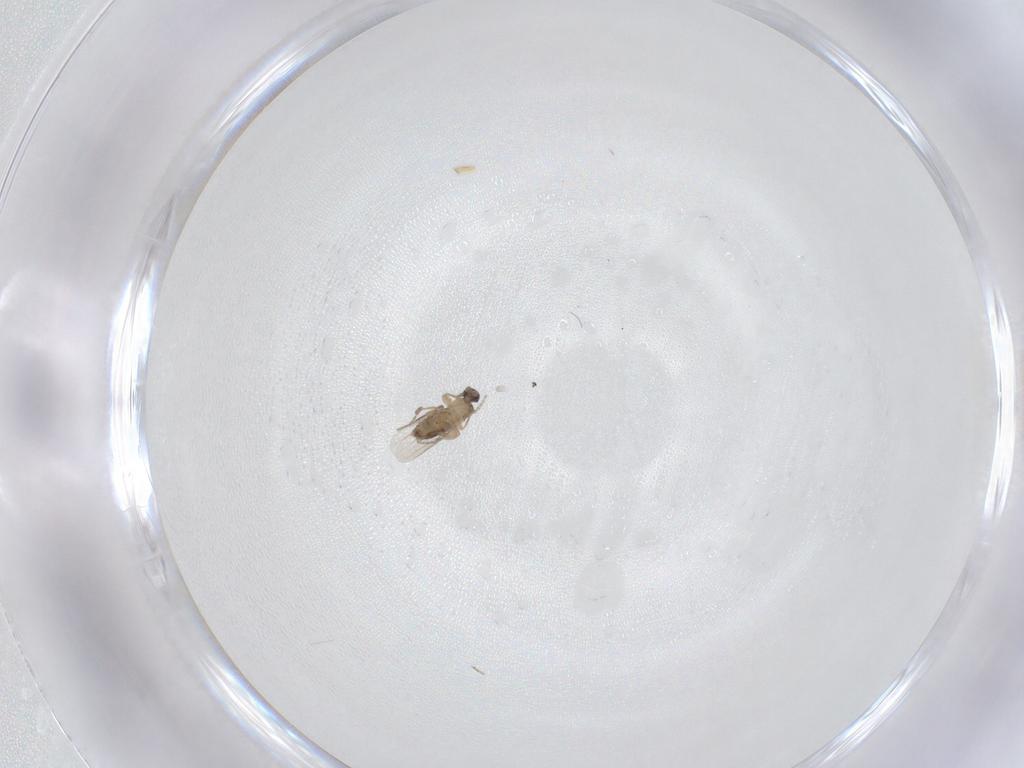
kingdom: Animalia
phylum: Arthropoda
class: Insecta
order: Diptera
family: Phoridae
